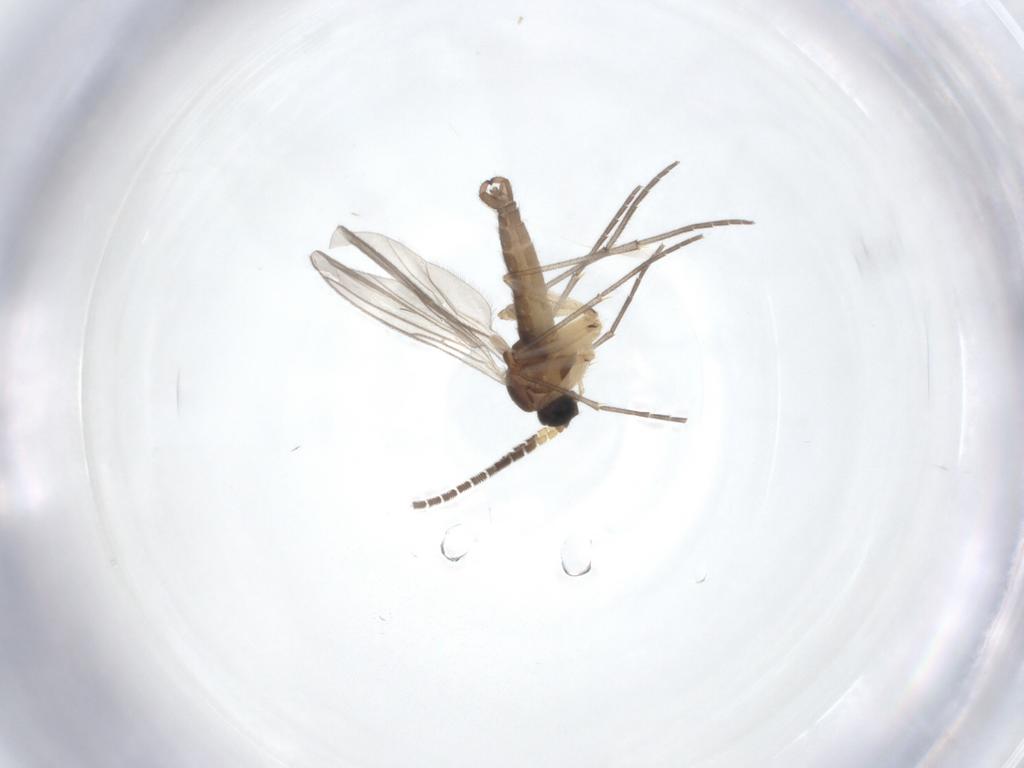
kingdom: Animalia
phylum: Arthropoda
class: Insecta
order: Diptera
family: Sciaridae
